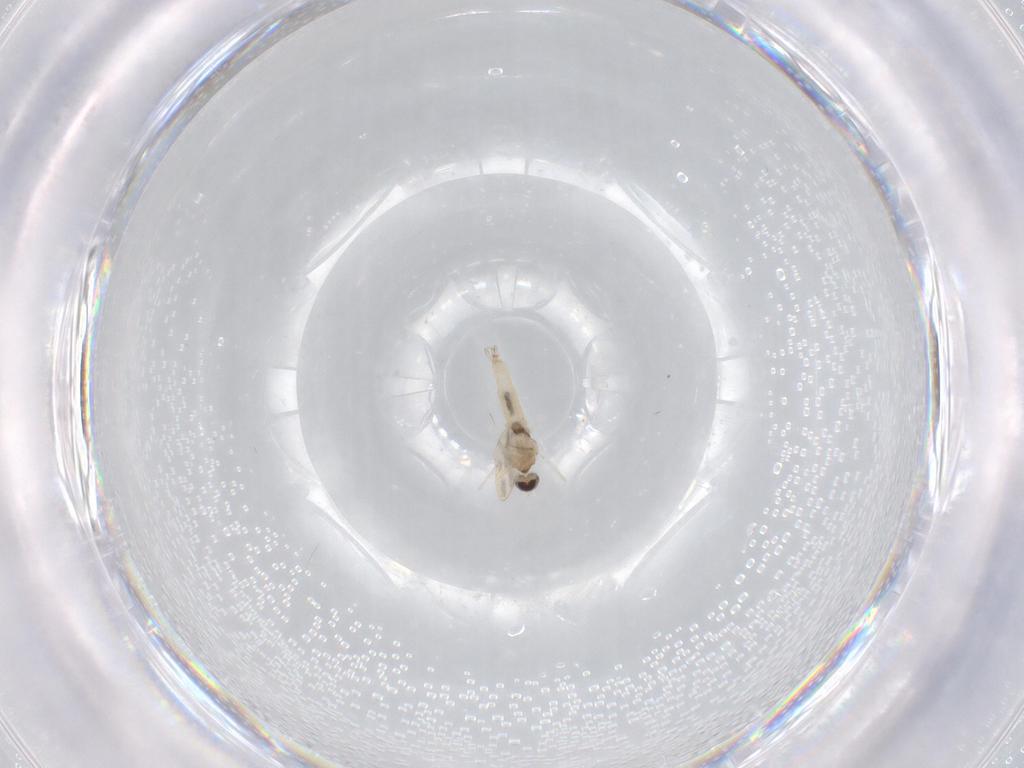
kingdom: Animalia
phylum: Arthropoda
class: Insecta
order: Diptera
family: Cecidomyiidae
